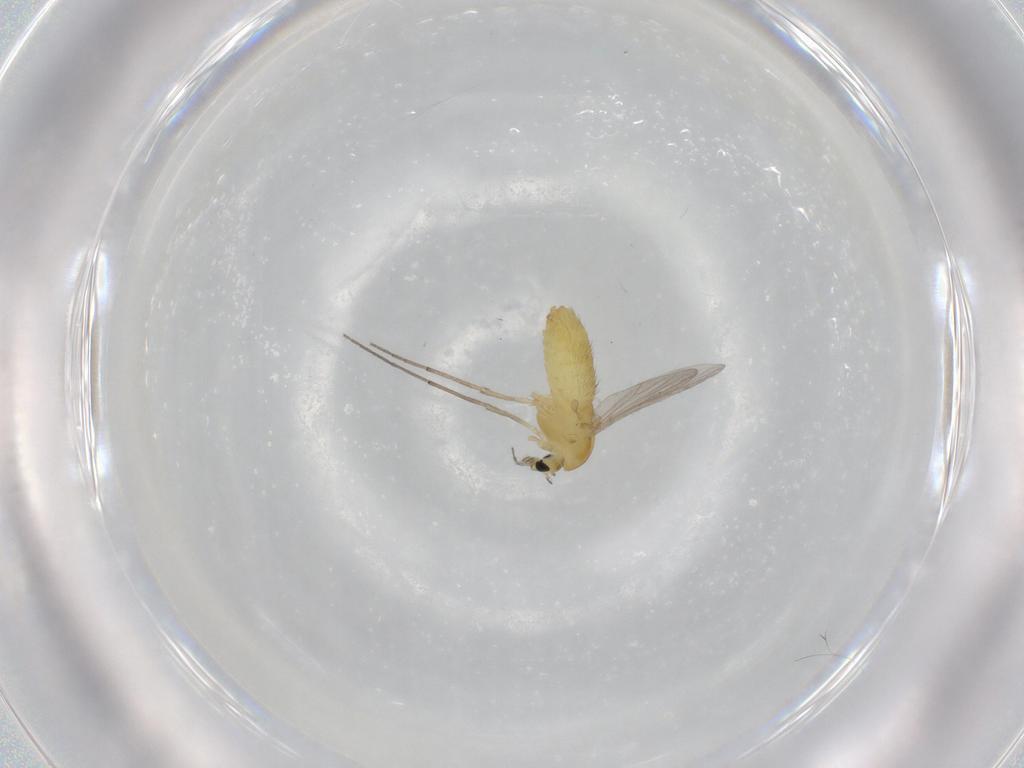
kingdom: Animalia
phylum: Arthropoda
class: Insecta
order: Diptera
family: Chironomidae
